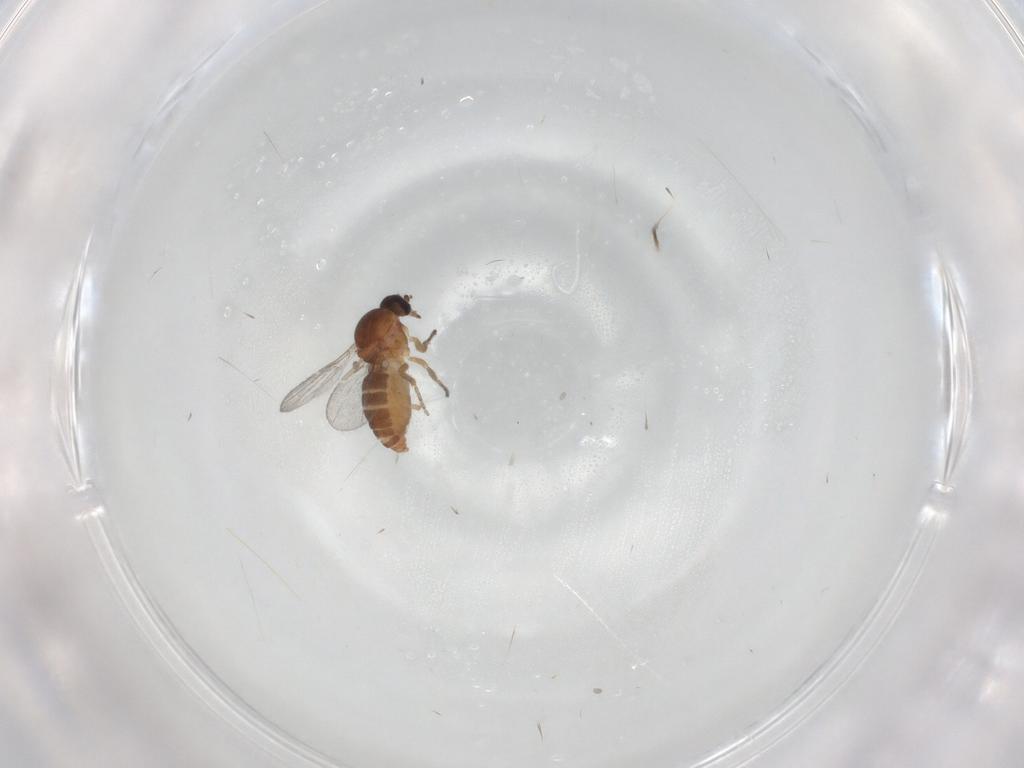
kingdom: Animalia
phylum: Arthropoda
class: Insecta
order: Diptera
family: Ceratopogonidae
